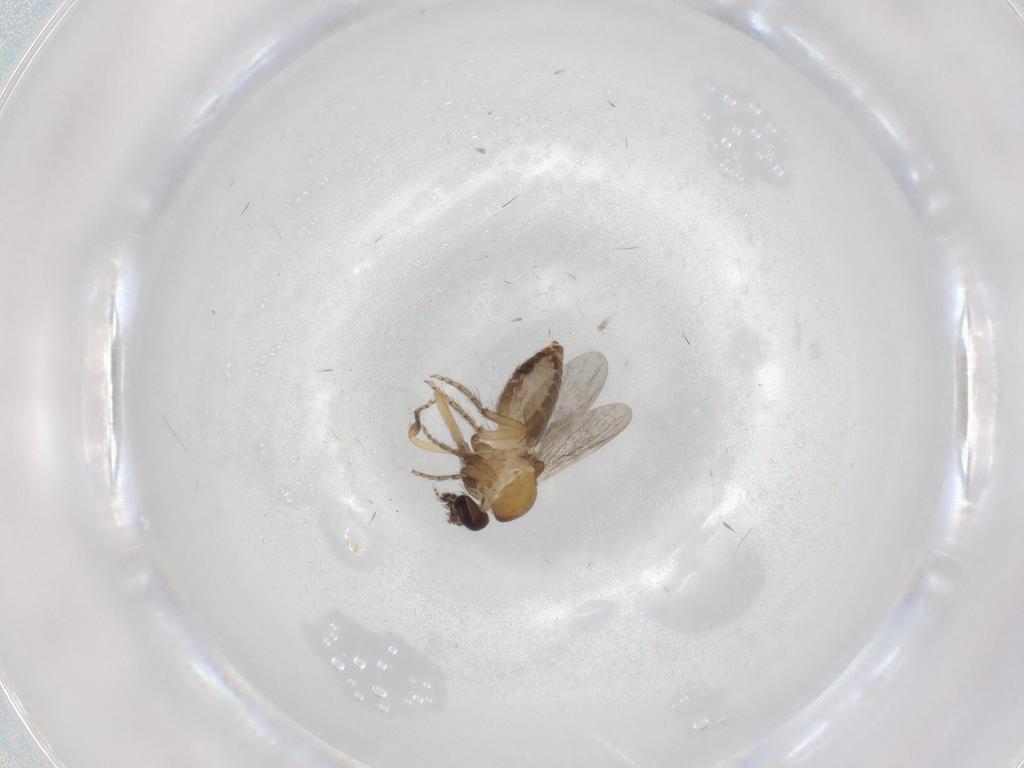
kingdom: Animalia
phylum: Arthropoda
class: Insecta
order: Diptera
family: Ceratopogonidae
